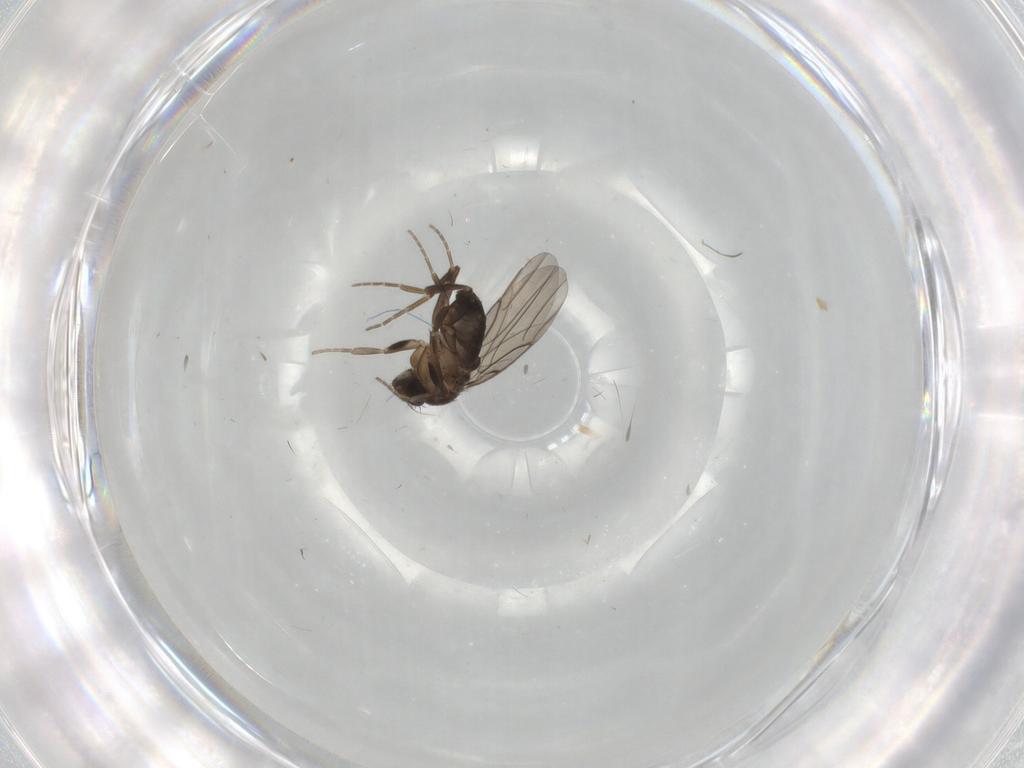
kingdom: Animalia
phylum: Arthropoda
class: Insecta
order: Diptera
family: Phoridae
